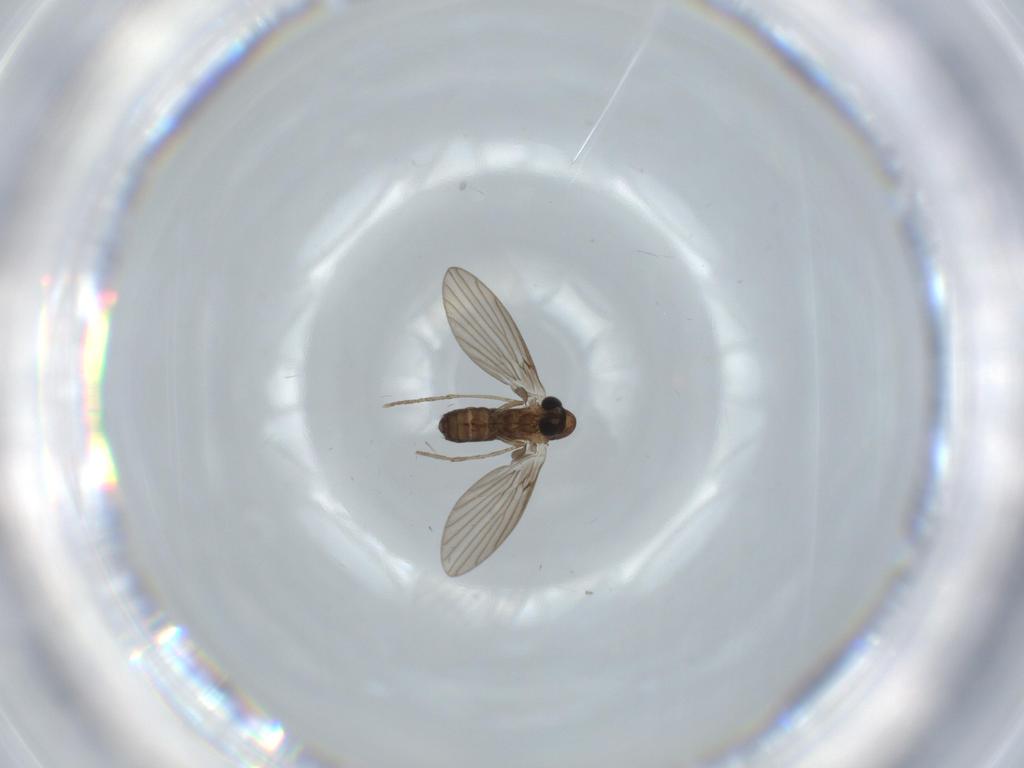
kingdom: Animalia
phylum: Arthropoda
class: Insecta
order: Diptera
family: Psychodidae
